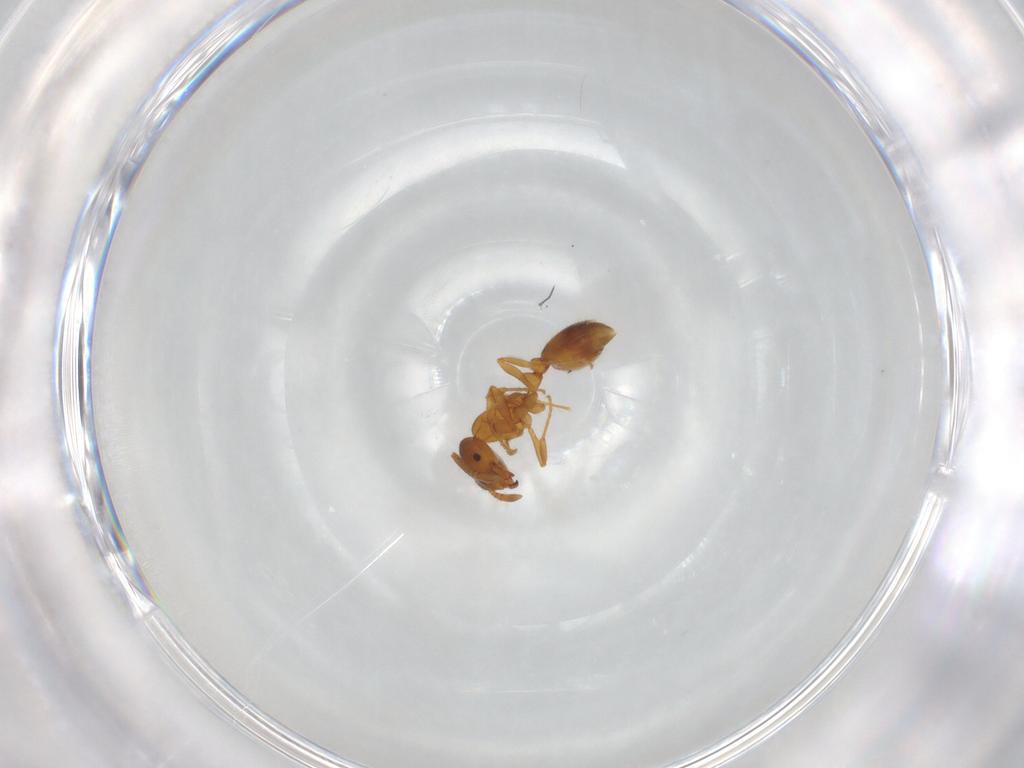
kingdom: Animalia
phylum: Arthropoda
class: Insecta
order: Hymenoptera
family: Formicidae
